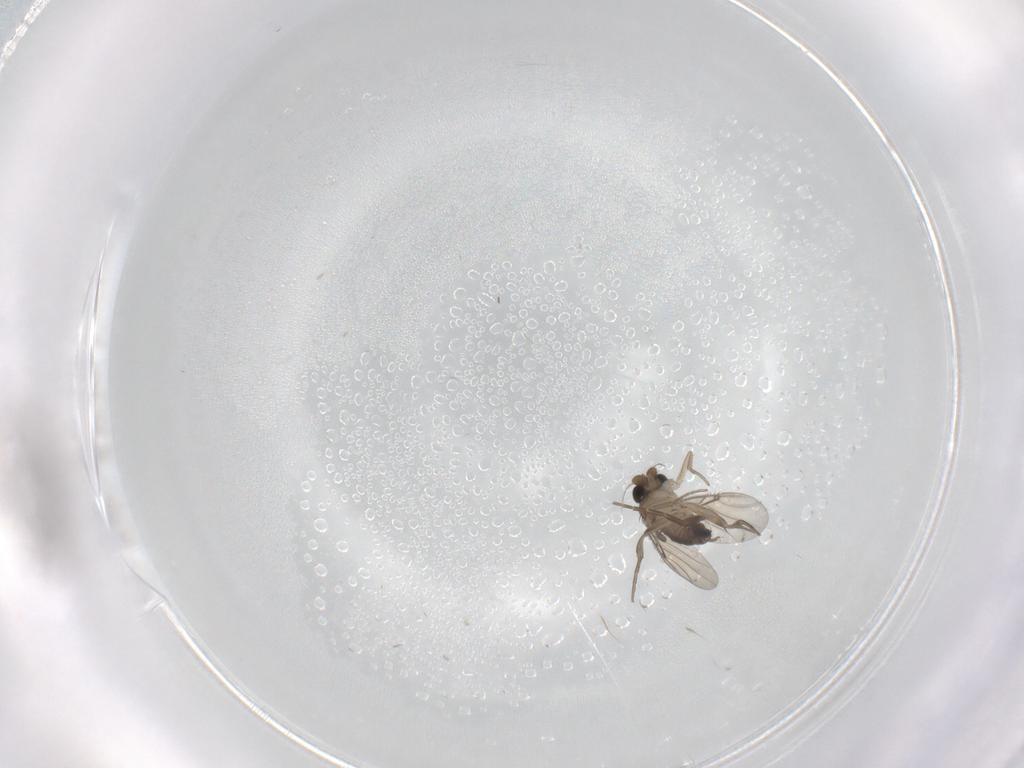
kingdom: Animalia
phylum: Arthropoda
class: Insecta
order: Diptera
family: Phoridae
